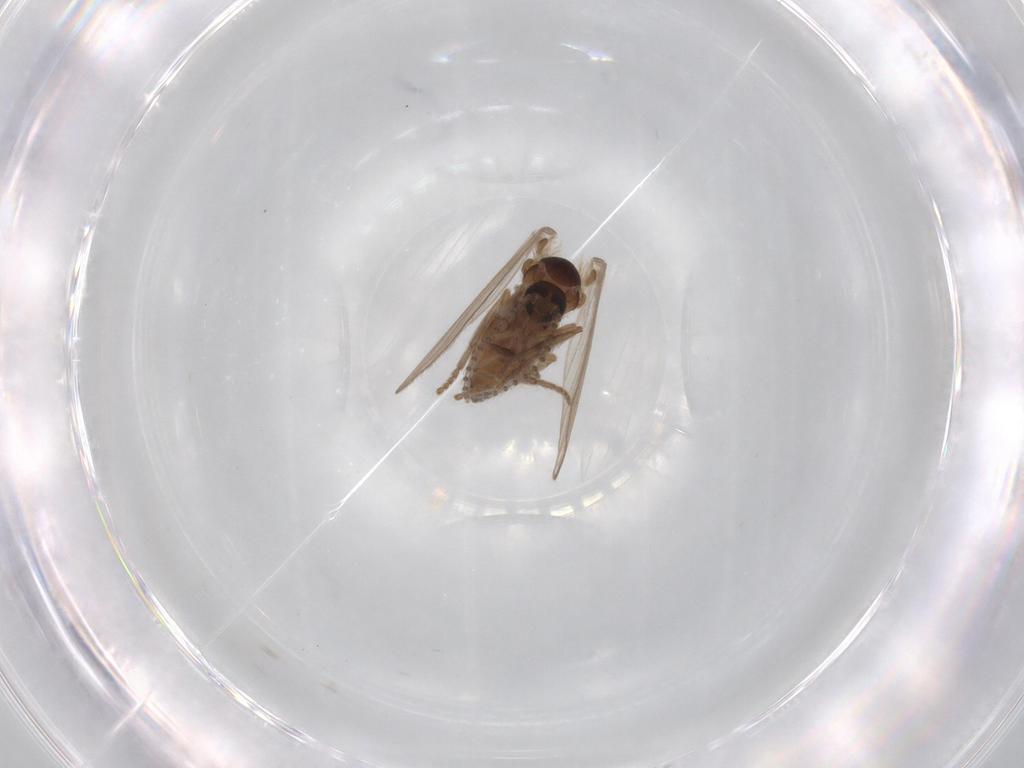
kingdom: Animalia
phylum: Arthropoda
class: Insecta
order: Diptera
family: Psychodidae
